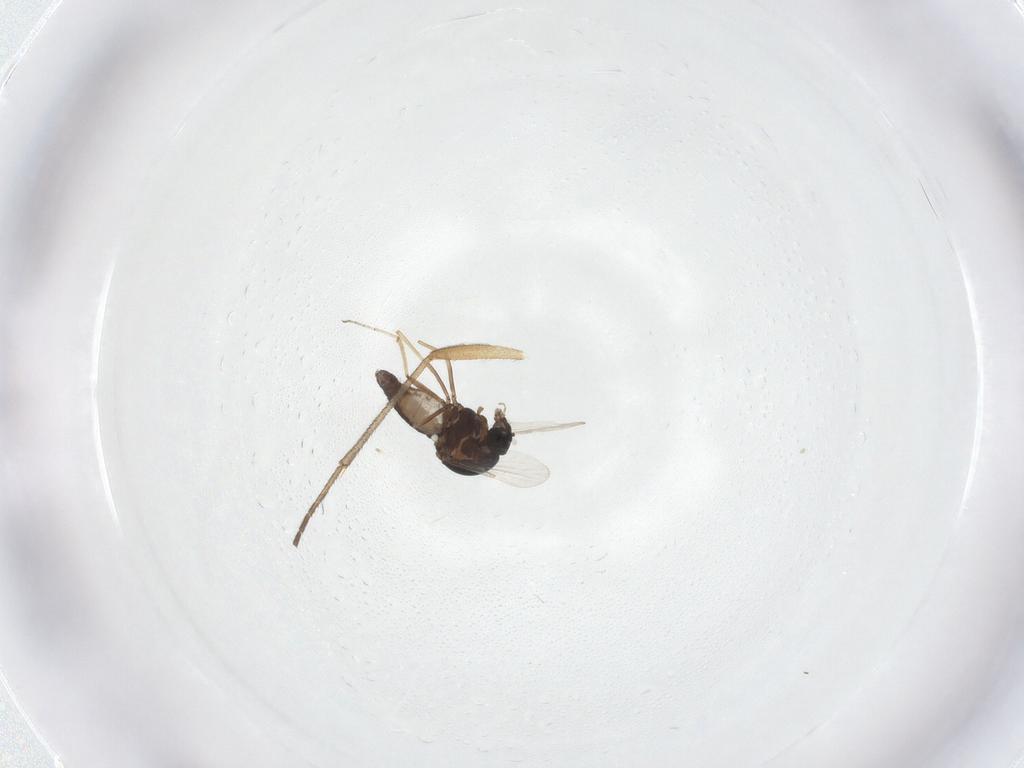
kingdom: Animalia
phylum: Arthropoda
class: Insecta
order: Diptera
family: Ceratopogonidae
